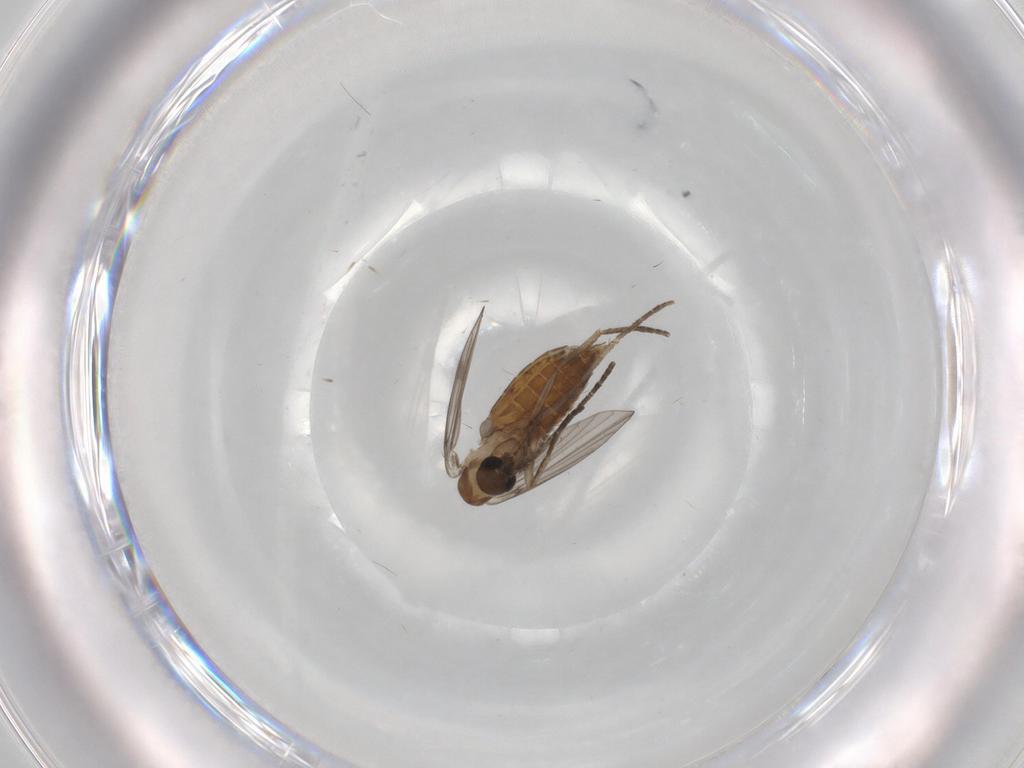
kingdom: Animalia
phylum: Arthropoda
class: Insecta
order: Diptera
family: Psychodidae
